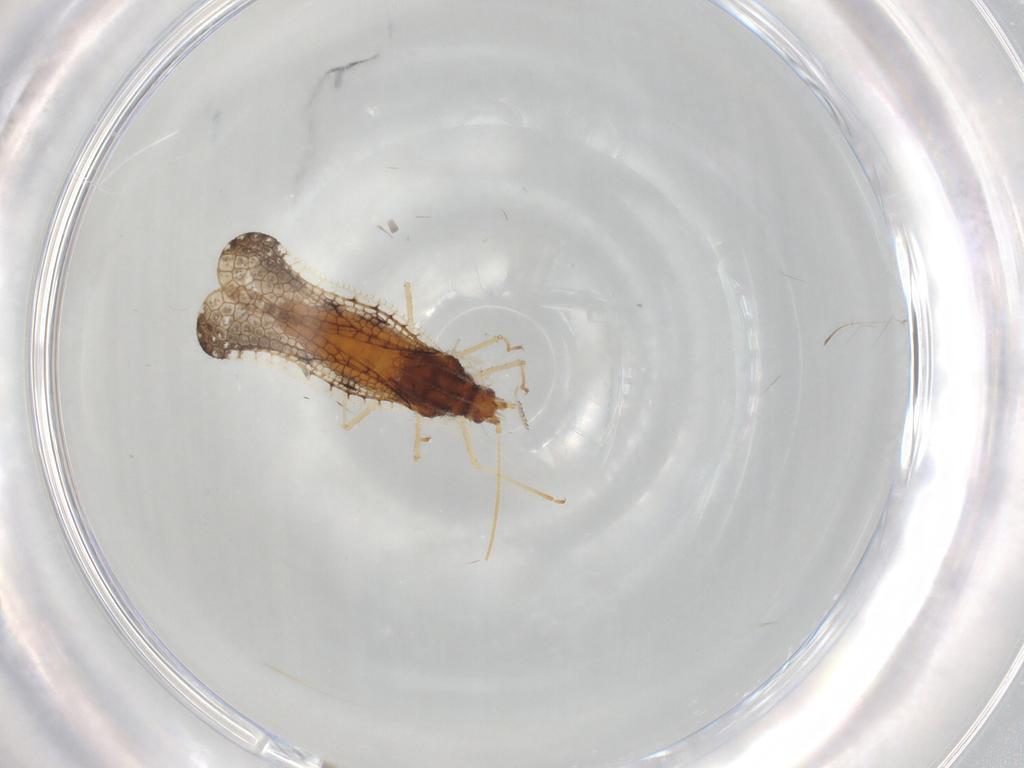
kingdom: Animalia
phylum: Arthropoda
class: Insecta
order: Hemiptera
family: Tingidae
